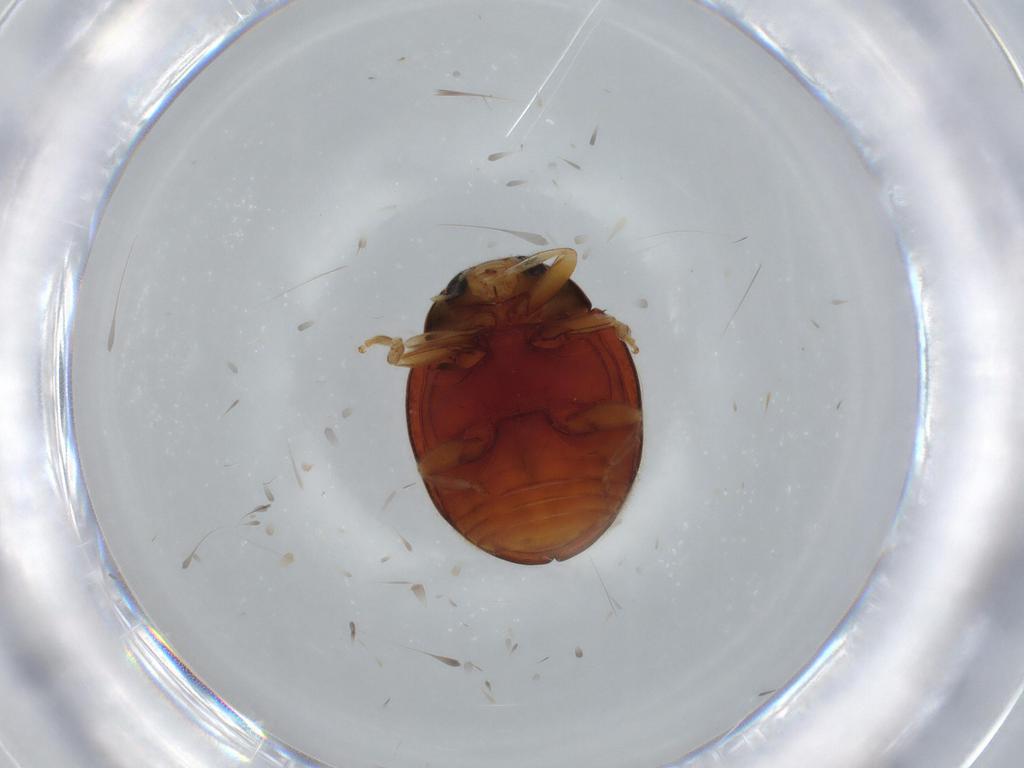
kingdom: Animalia
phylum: Arthropoda
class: Insecta
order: Coleoptera
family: Coccinellidae
